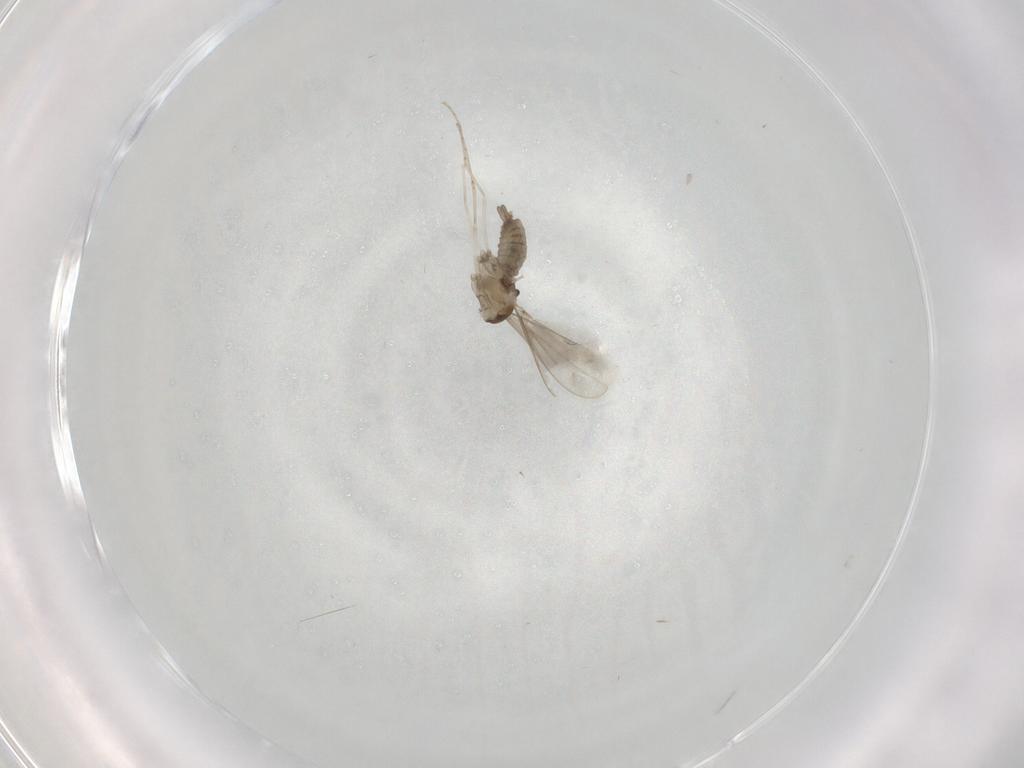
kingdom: Animalia
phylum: Arthropoda
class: Insecta
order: Diptera
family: Cecidomyiidae
